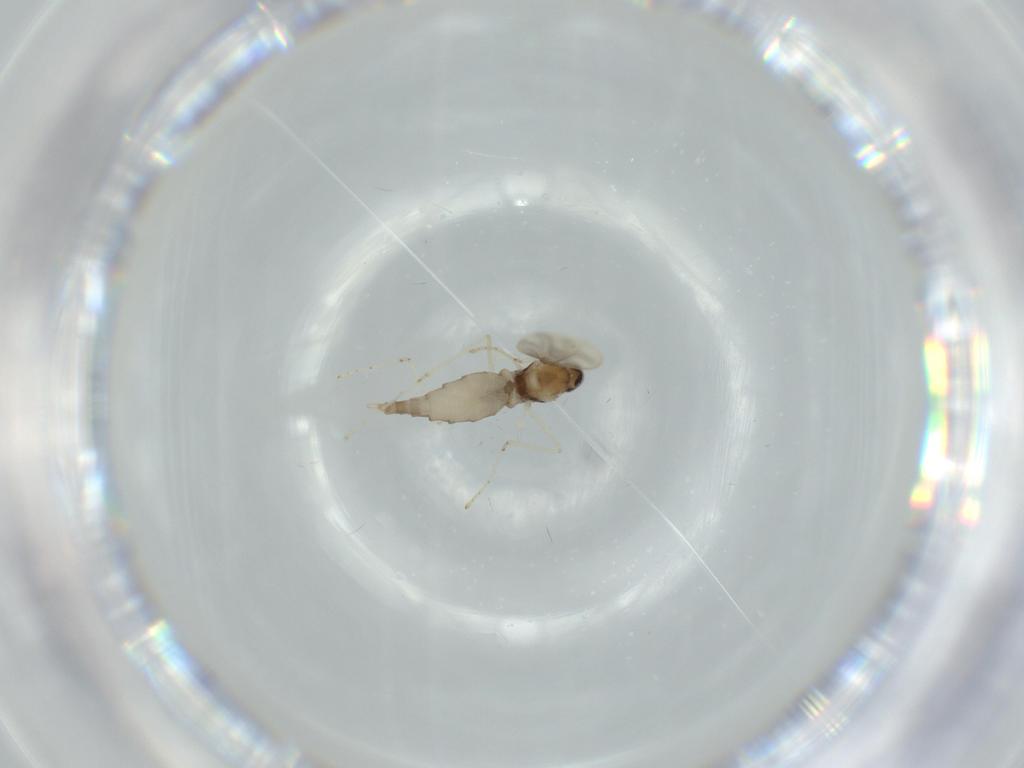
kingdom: Animalia
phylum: Arthropoda
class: Insecta
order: Diptera
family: Cecidomyiidae
